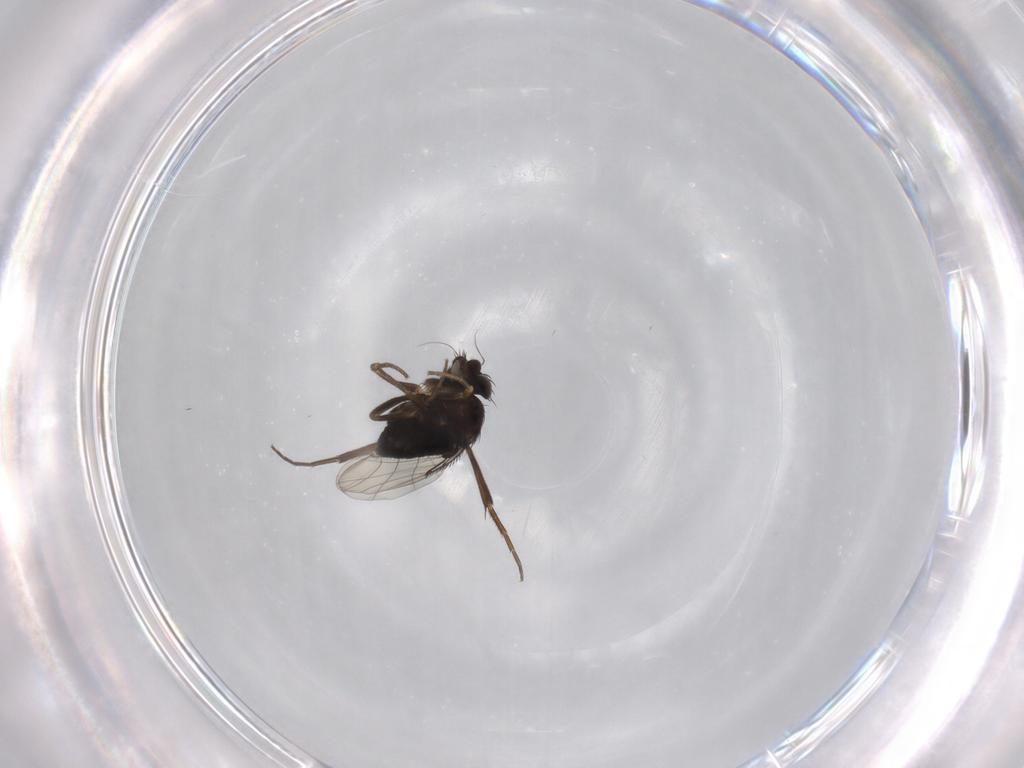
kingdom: Animalia
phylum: Arthropoda
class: Insecta
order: Diptera
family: Phoridae
